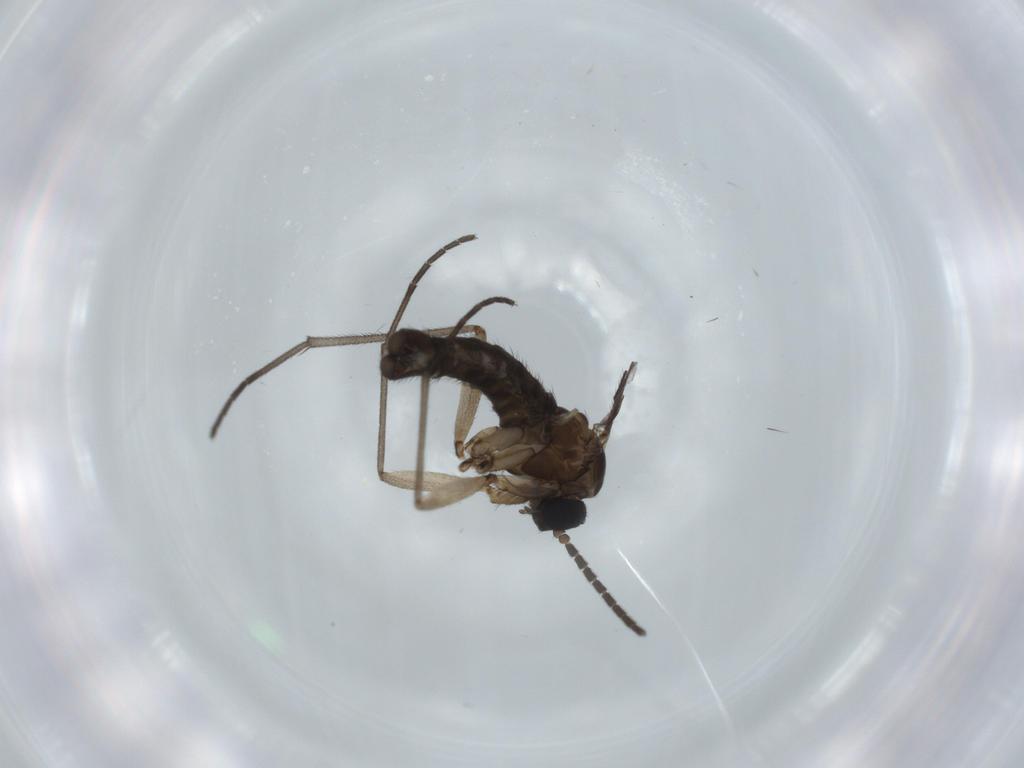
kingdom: Animalia
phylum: Arthropoda
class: Insecta
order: Diptera
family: Sciaridae
